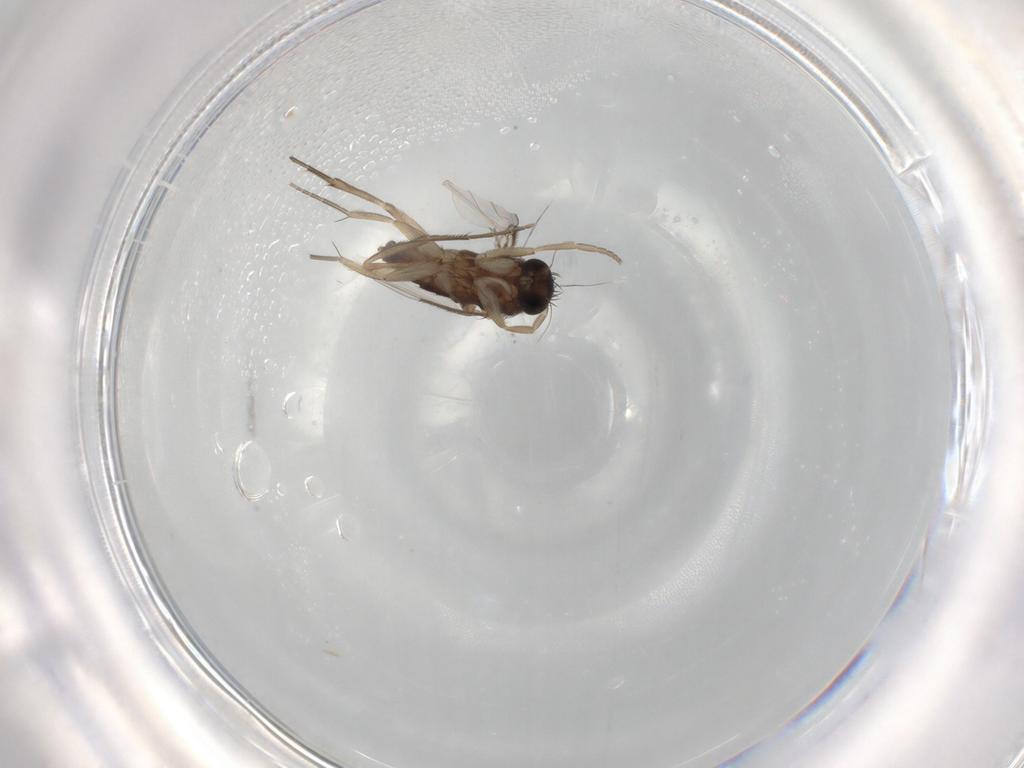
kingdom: Animalia
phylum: Arthropoda
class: Insecta
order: Diptera
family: Phoridae
